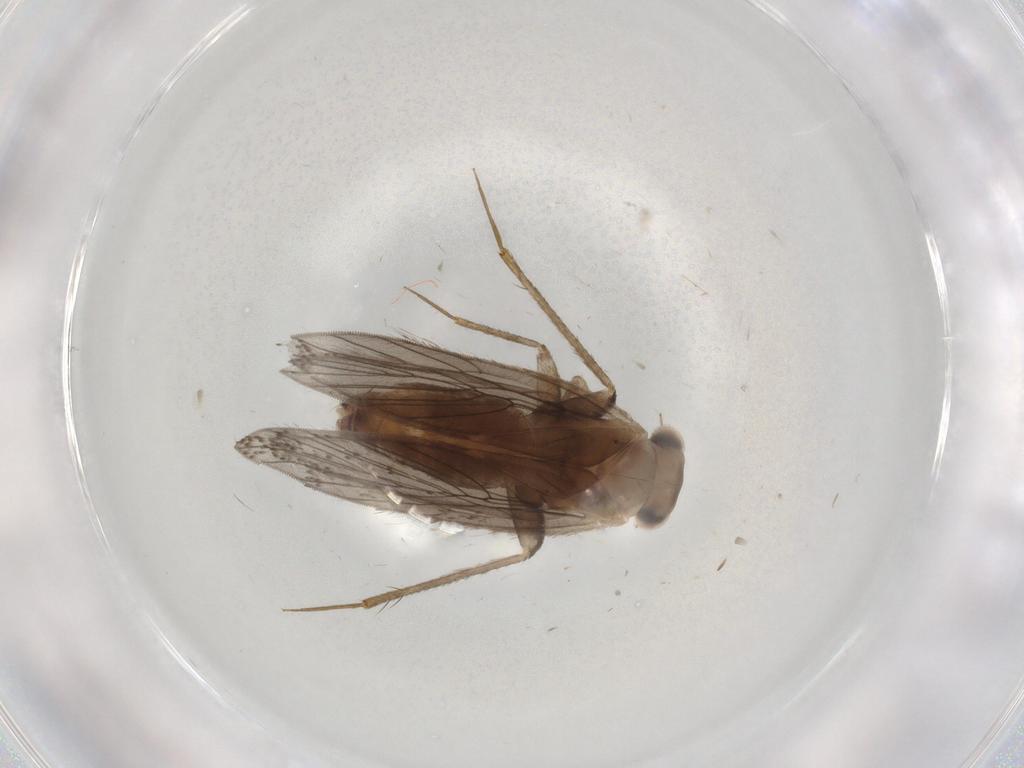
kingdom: Animalia
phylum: Arthropoda
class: Insecta
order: Psocodea
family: Lepidopsocidae
